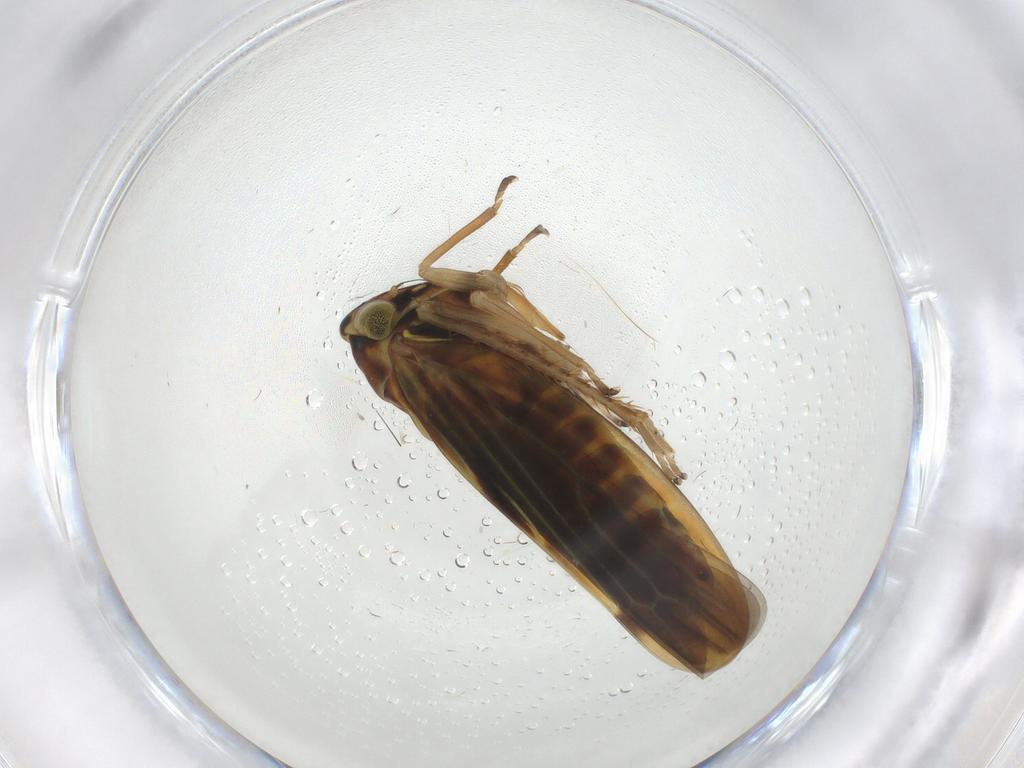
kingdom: Animalia
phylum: Arthropoda
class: Insecta
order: Hemiptera
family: Cicadellidae
